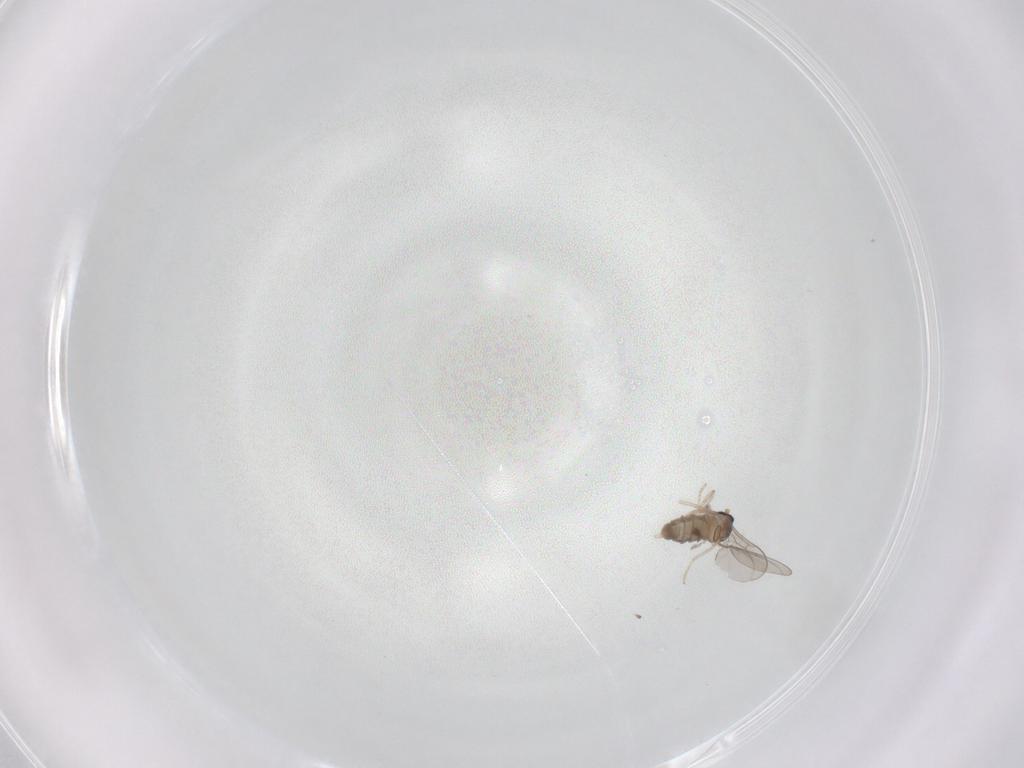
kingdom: Animalia
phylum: Arthropoda
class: Insecta
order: Diptera
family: Cecidomyiidae
